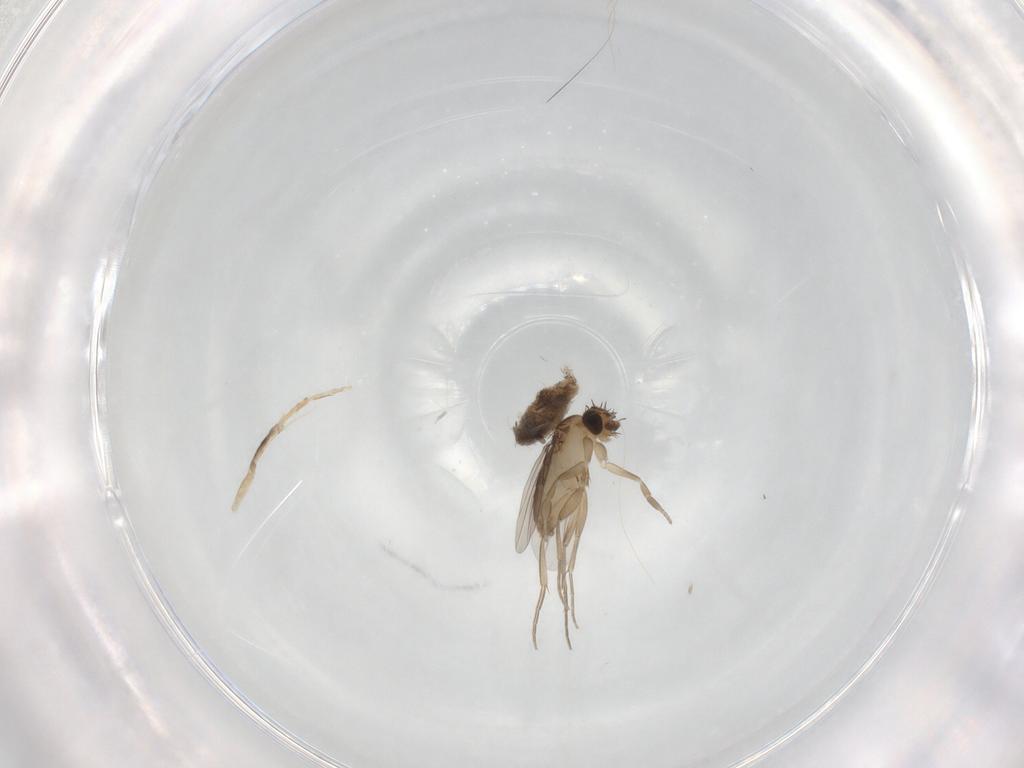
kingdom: Animalia
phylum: Arthropoda
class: Insecta
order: Diptera
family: Phoridae
